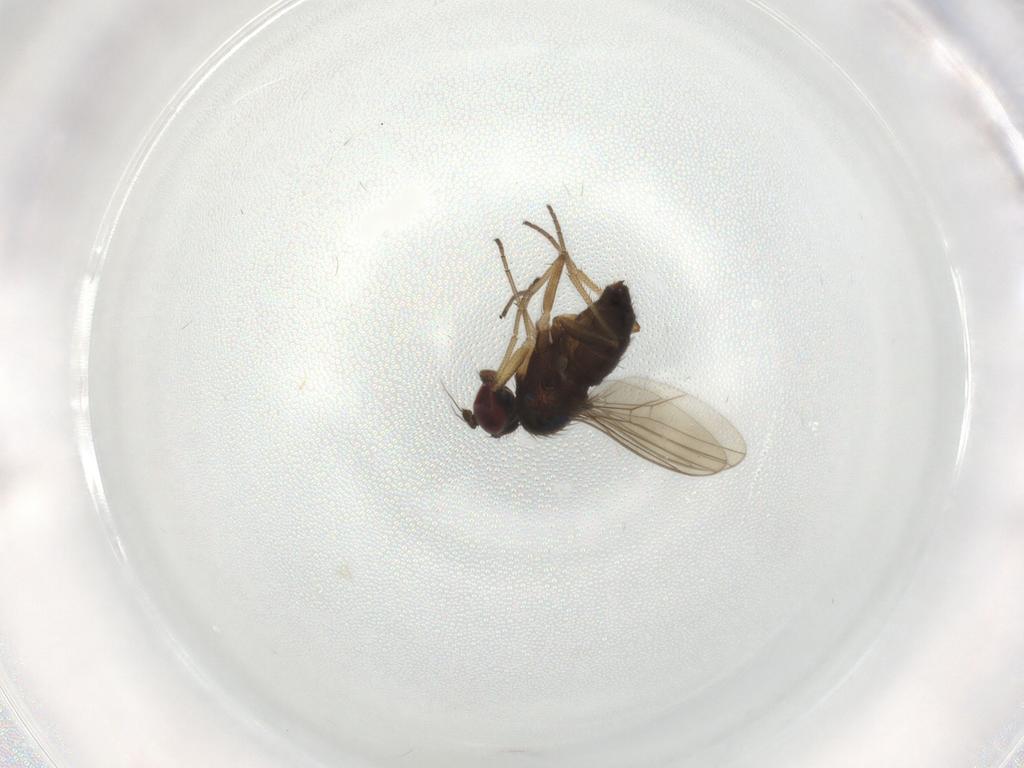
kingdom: Animalia
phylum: Arthropoda
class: Insecta
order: Diptera
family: Dolichopodidae
